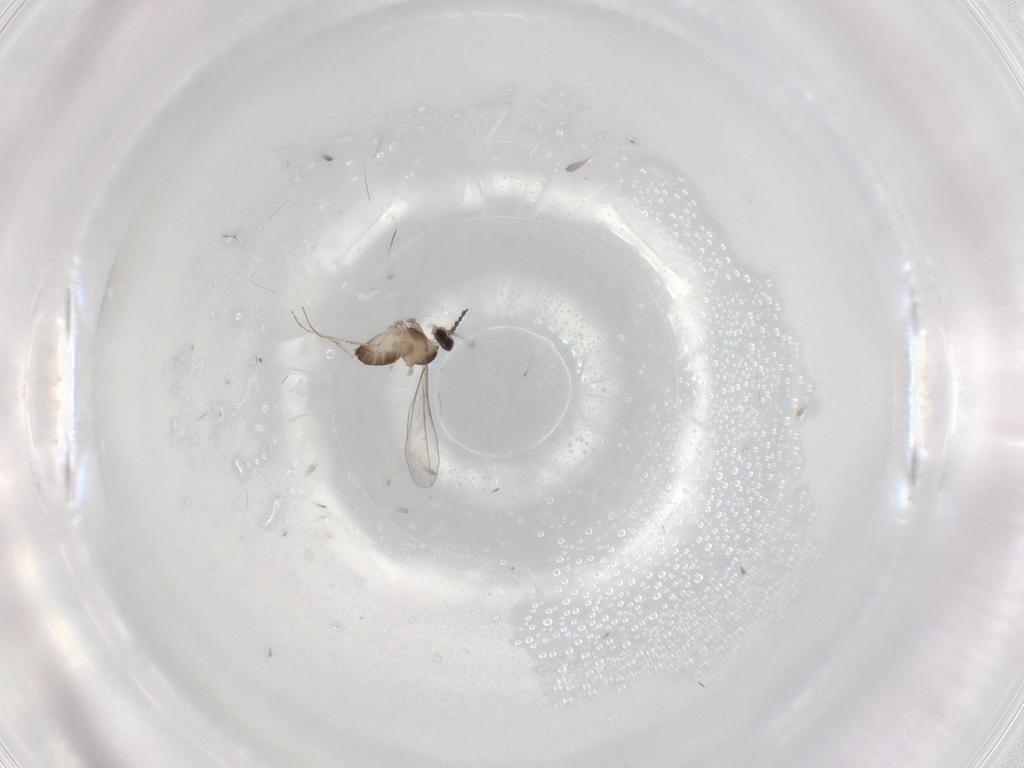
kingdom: Animalia
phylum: Arthropoda
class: Insecta
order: Diptera
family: Cecidomyiidae
